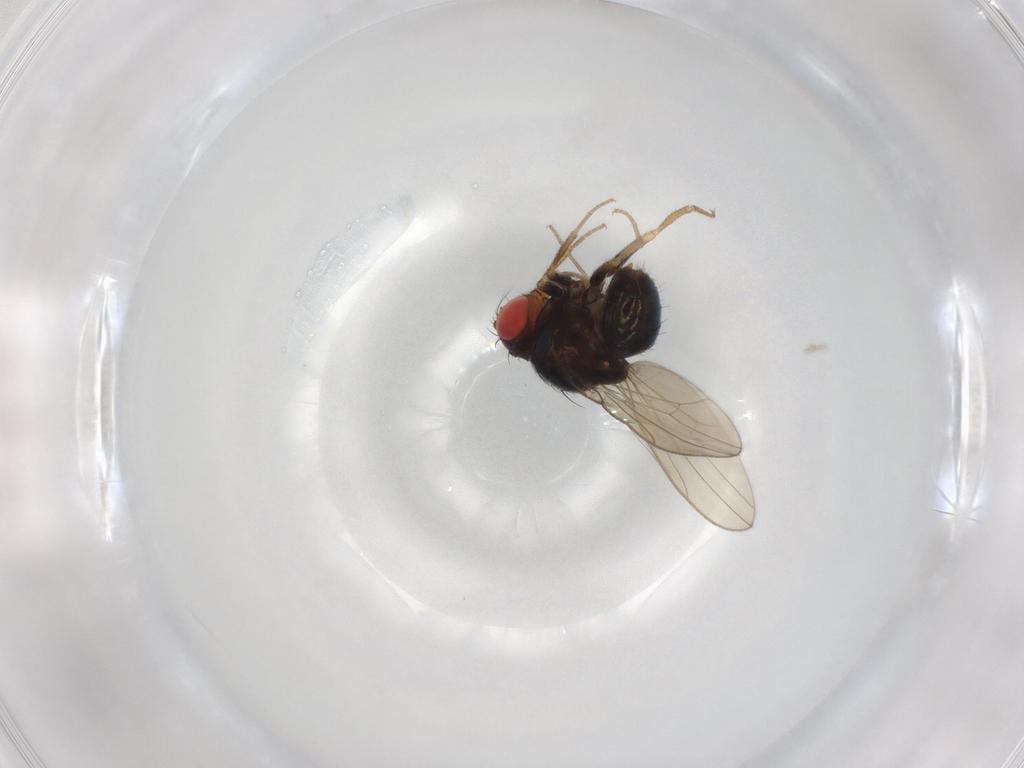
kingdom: Animalia
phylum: Arthropoda
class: Insecta
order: Diptera
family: Drosophilidae
